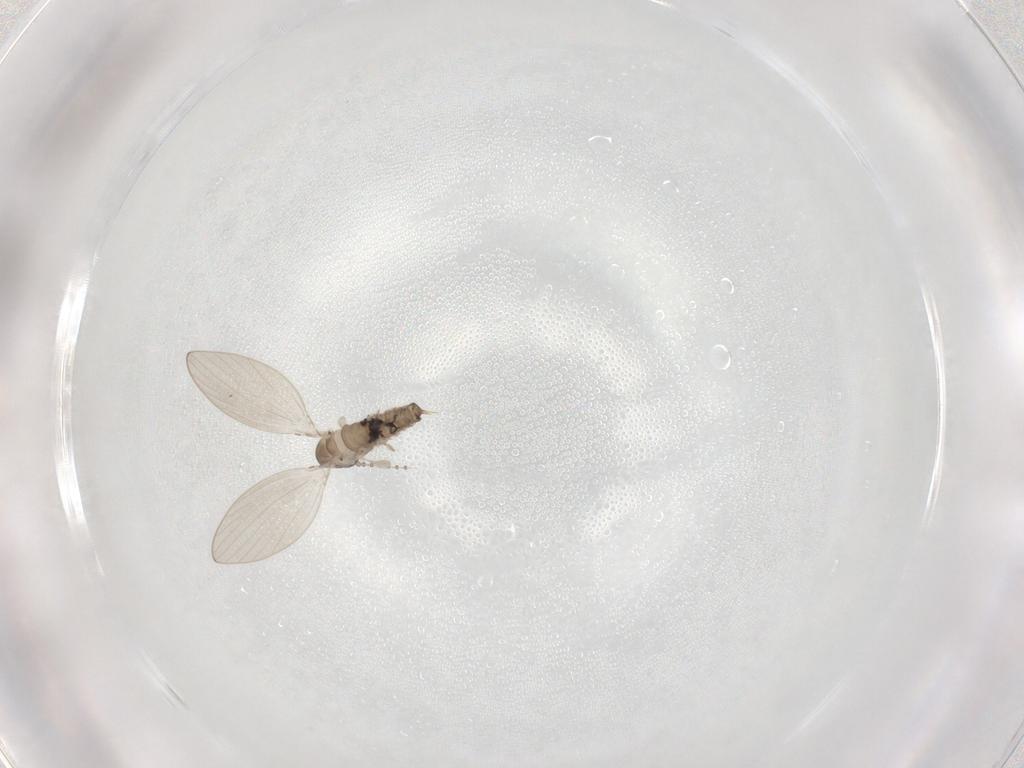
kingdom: Animalia
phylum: Arthropoda
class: Insecta
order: Diptera
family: Psychodidae
